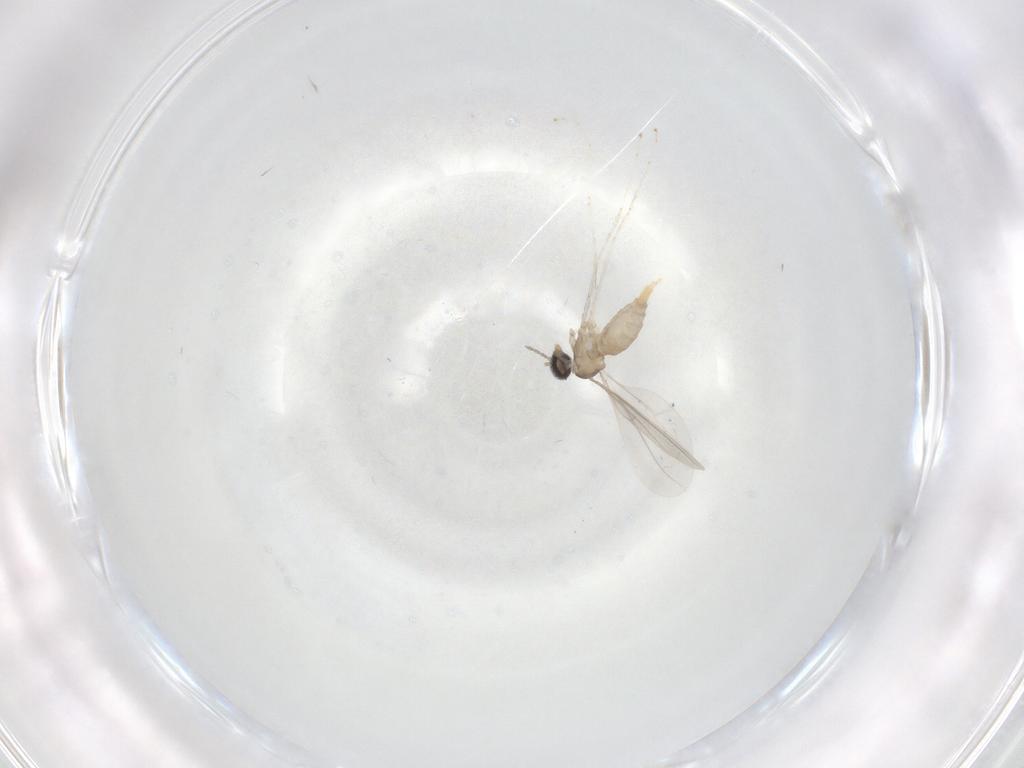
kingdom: Animalia
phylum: Arthropoda
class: Insecta
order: Diptera
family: Cecidomyiidae
